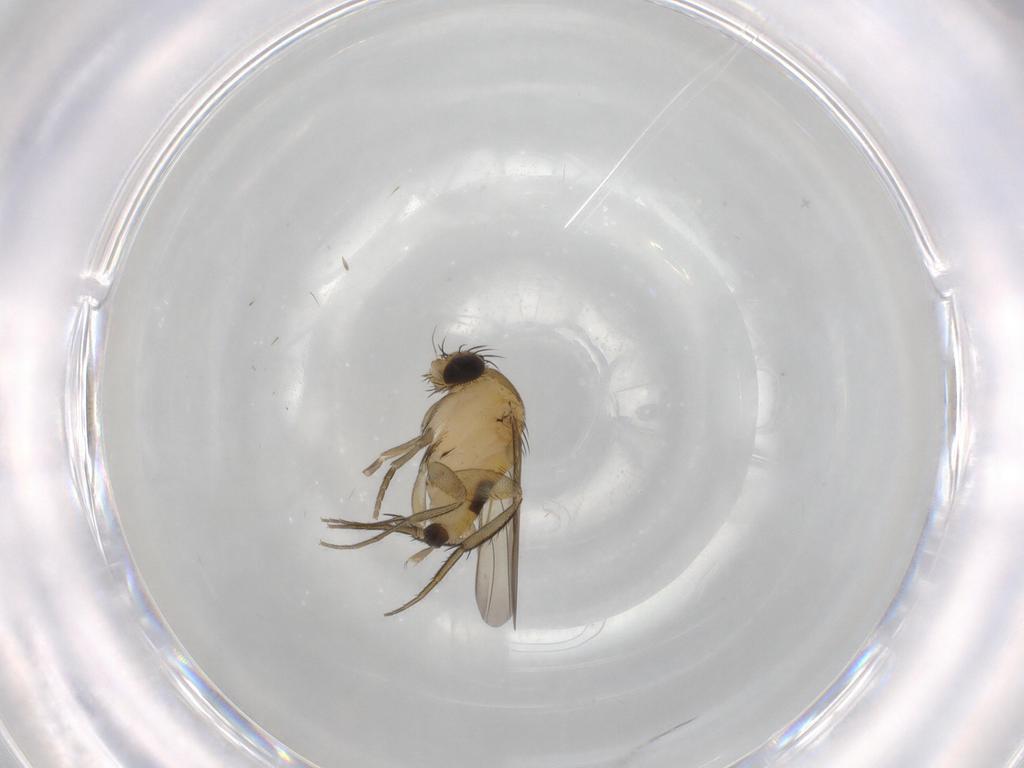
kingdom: Animalia
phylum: Arthropoda
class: Insecta
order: Diptera
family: Phoridae
